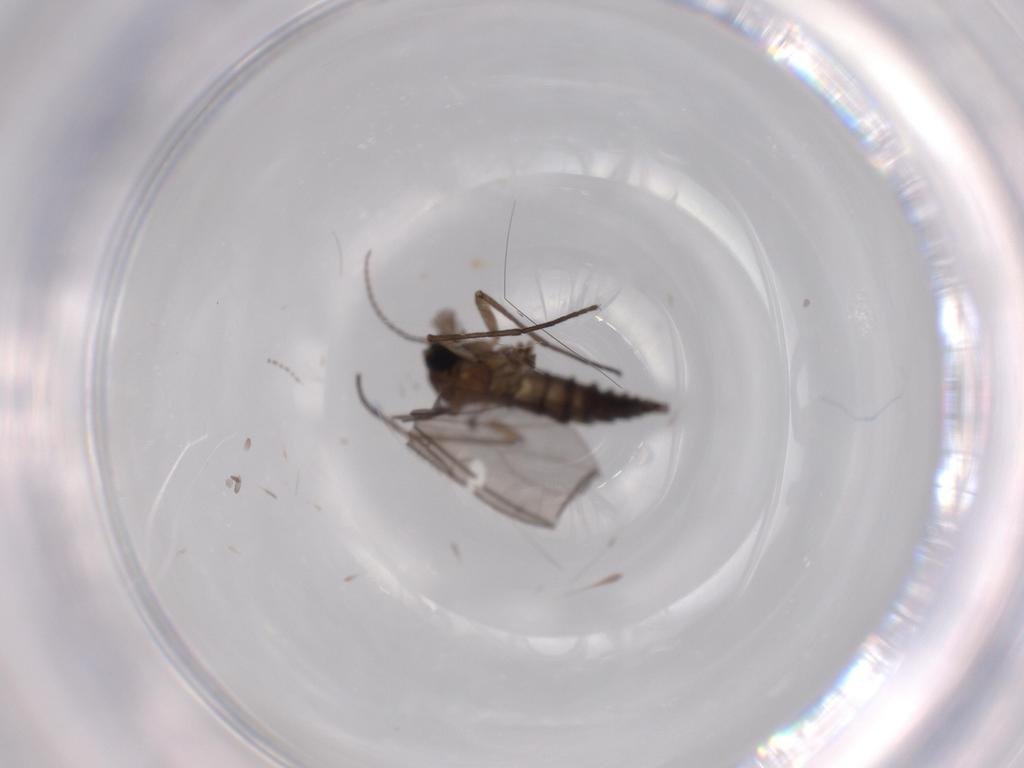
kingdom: Animalia
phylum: Arthropoda
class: Insecta
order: Diptera
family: Sciaridae
